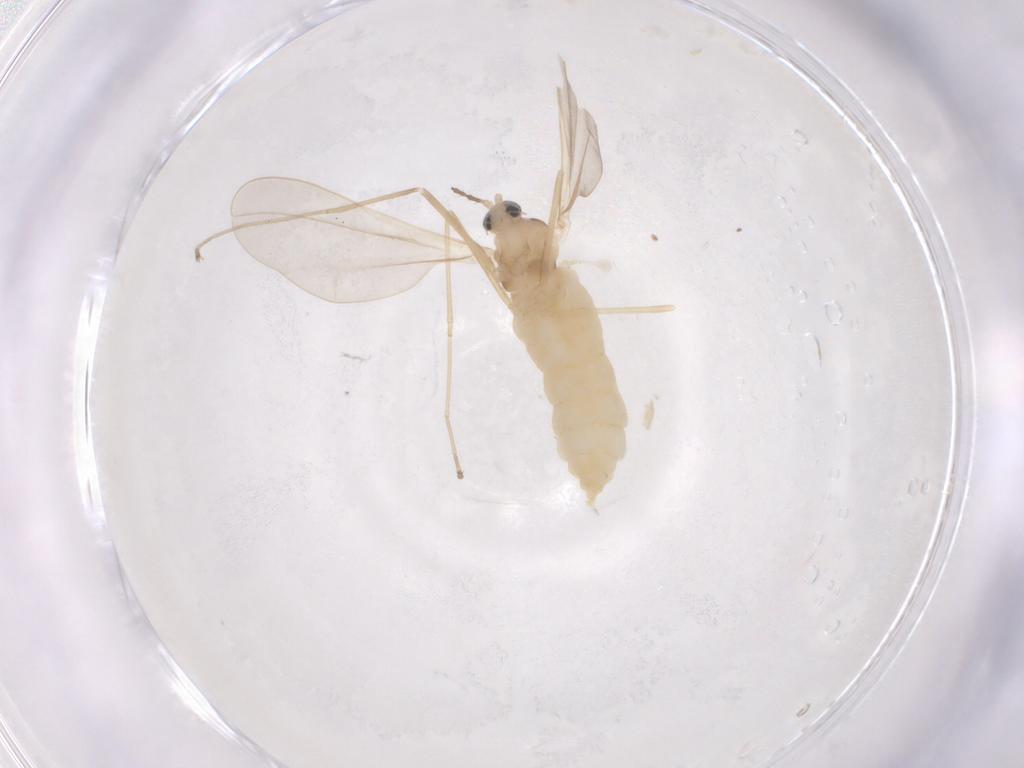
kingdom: Animalia
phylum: Arthropoda
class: Insecta
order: Diptera
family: Cecidomyiidae
